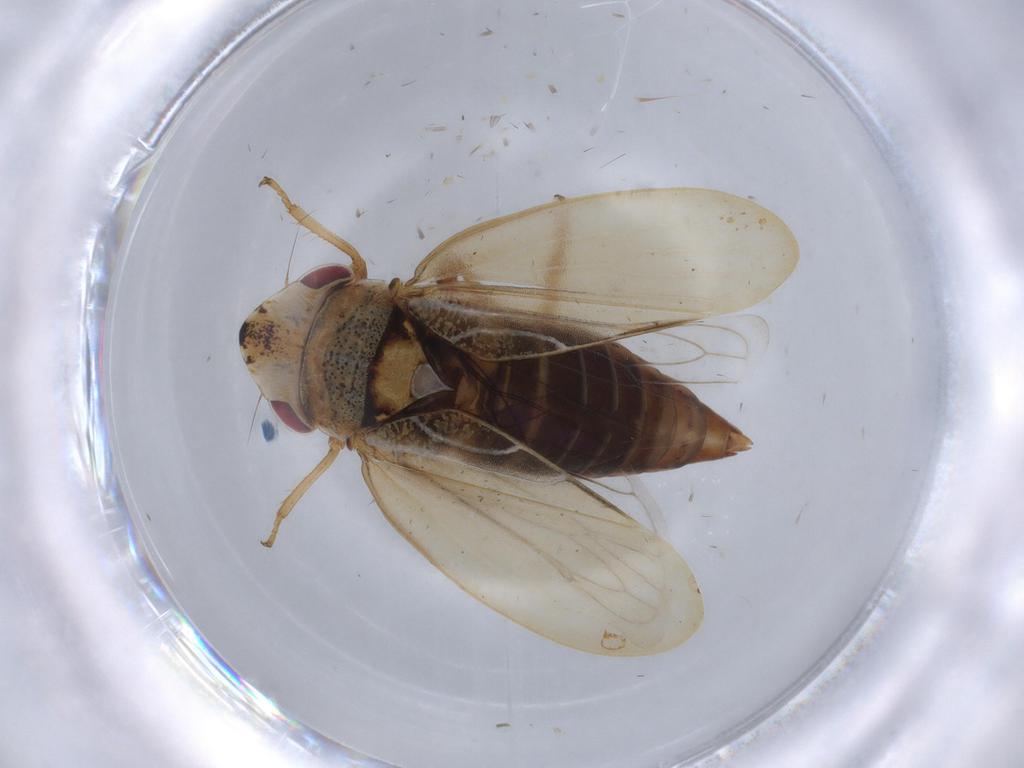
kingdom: Animalia
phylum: Arthropoda
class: Insecta
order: Hemiptera
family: Cicadellidae
